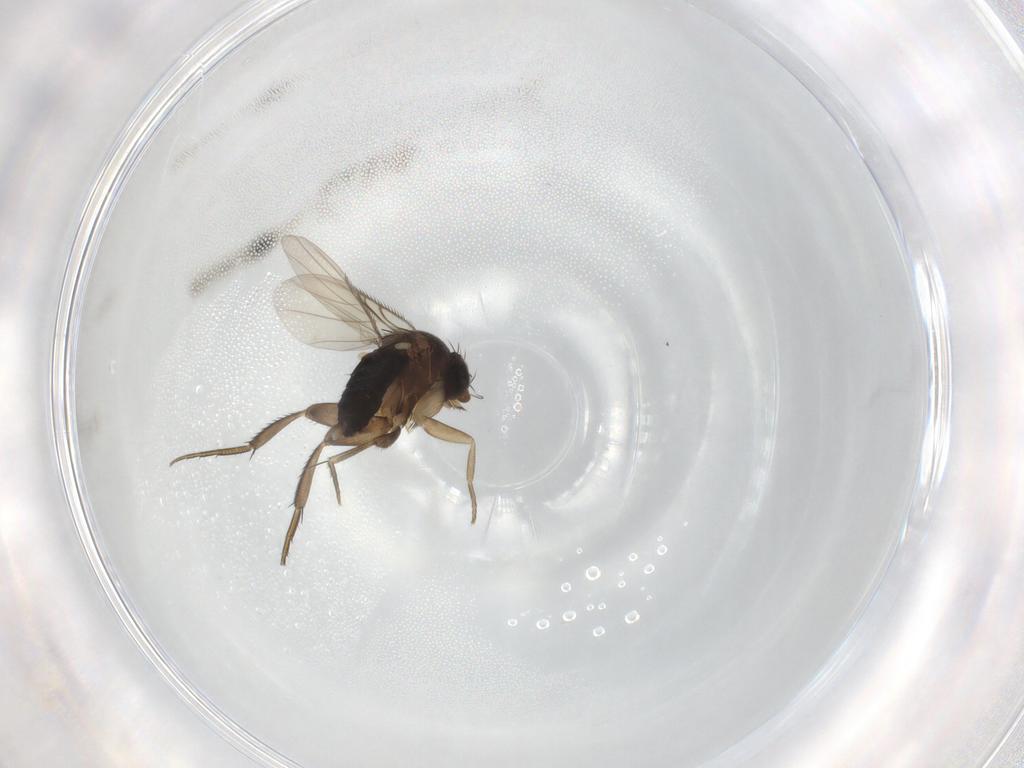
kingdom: Animalia
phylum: Arthropoda
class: Insecta
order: Diptera
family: Phoridae
